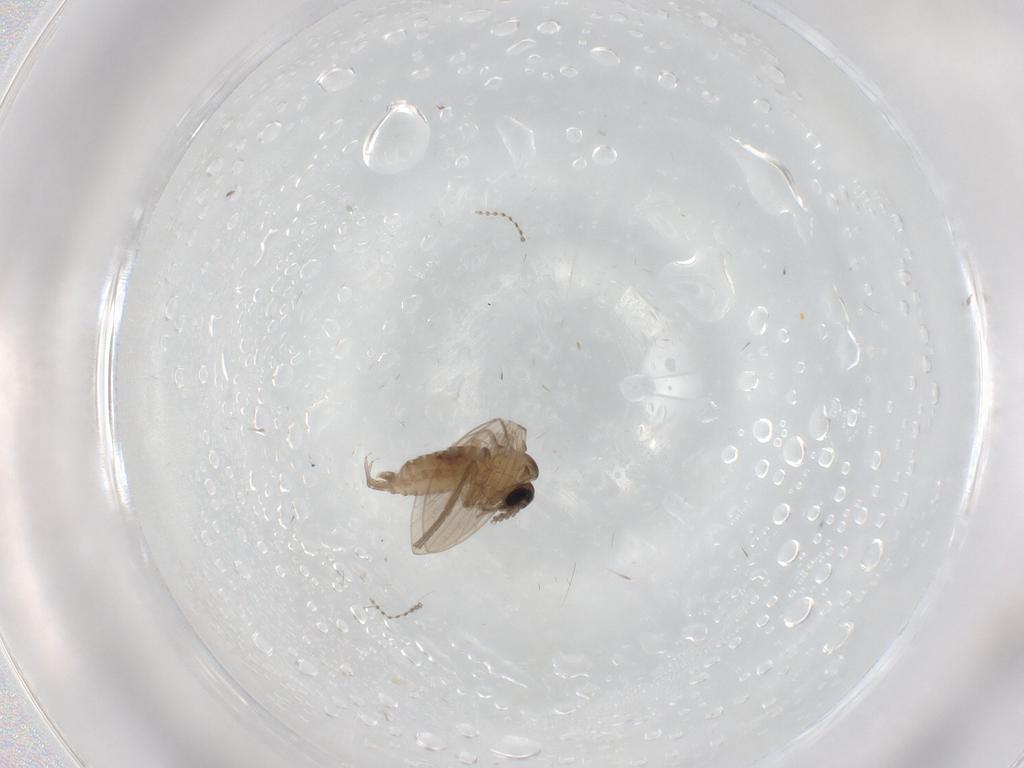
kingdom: Animalia
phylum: Arthropoda
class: Insecta
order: Diptera
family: Psychodidae
